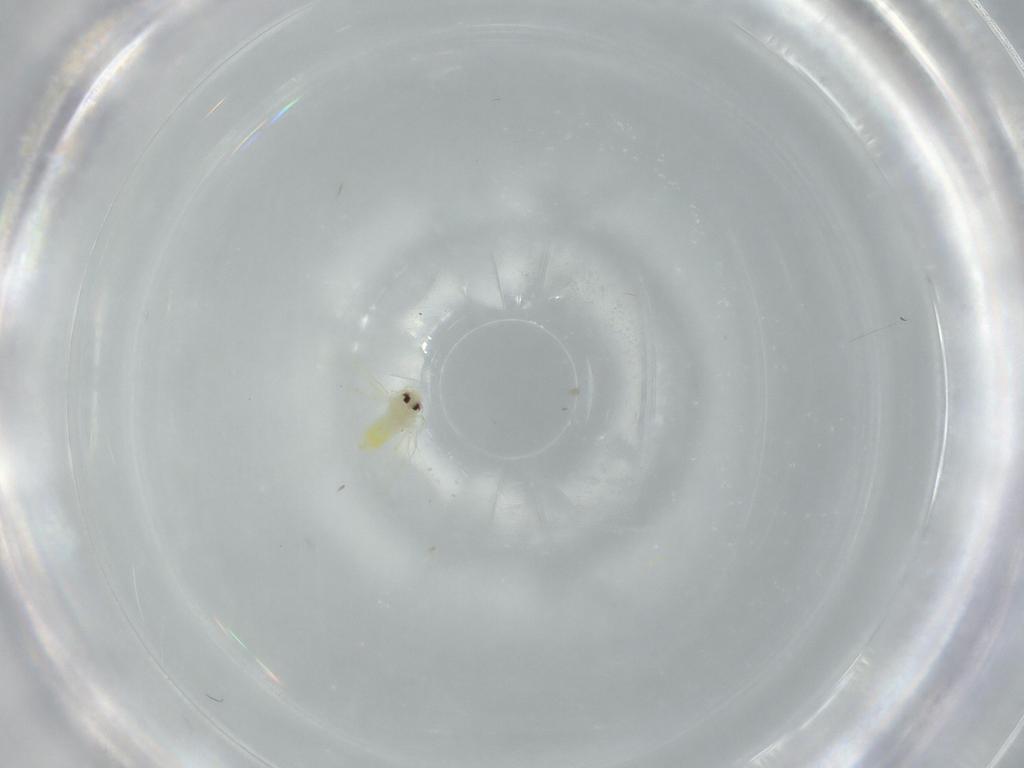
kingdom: Animalia
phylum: Arthropoda
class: Insecta
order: Hemiptera
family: Aleyrodidae
